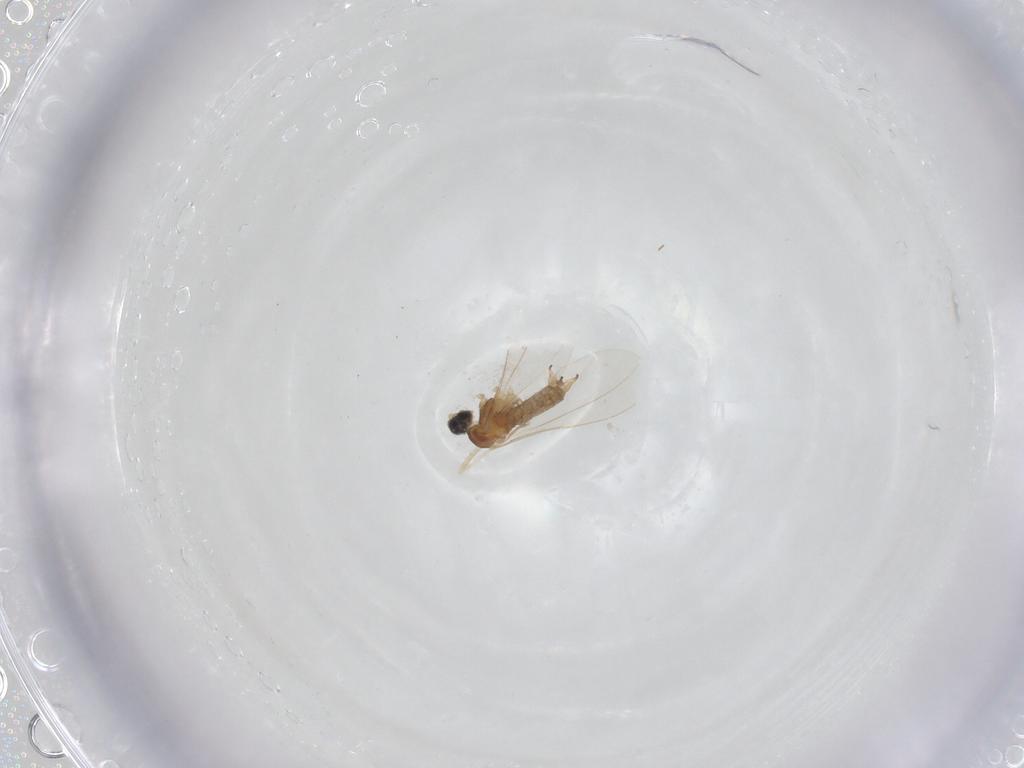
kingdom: Animalia
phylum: Arthropoda
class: Insecta
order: Diptera
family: Cecidomyiidae
